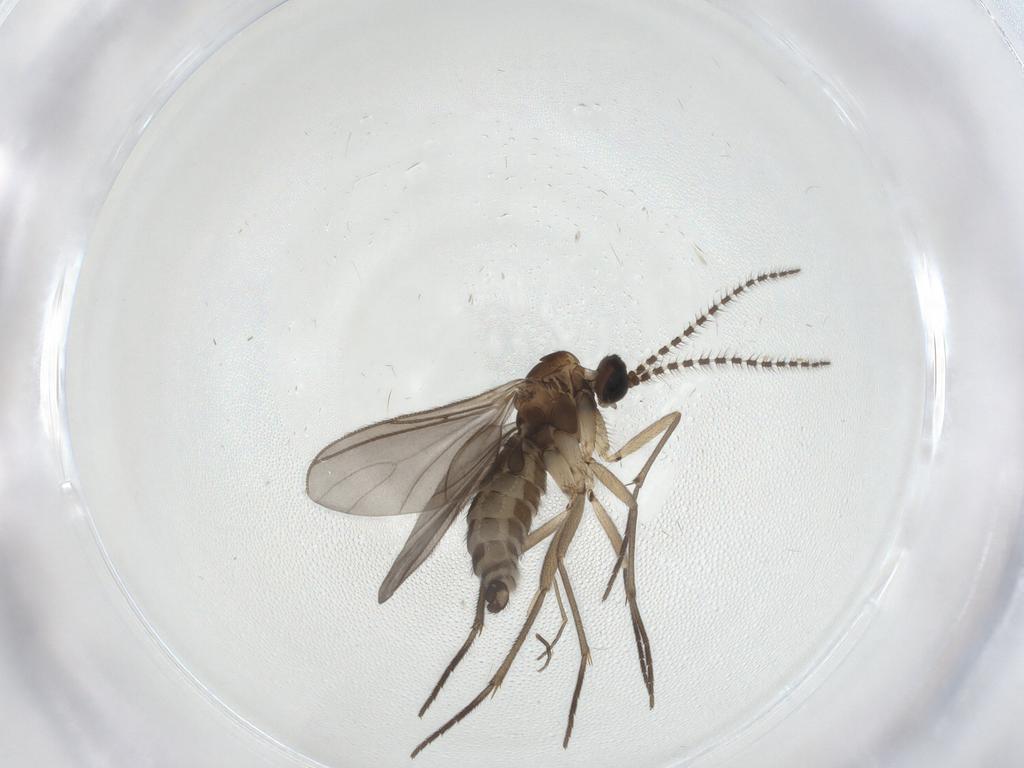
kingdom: Animalia
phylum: Arthropoda
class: Insecta
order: Diptera
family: Sciaridae
